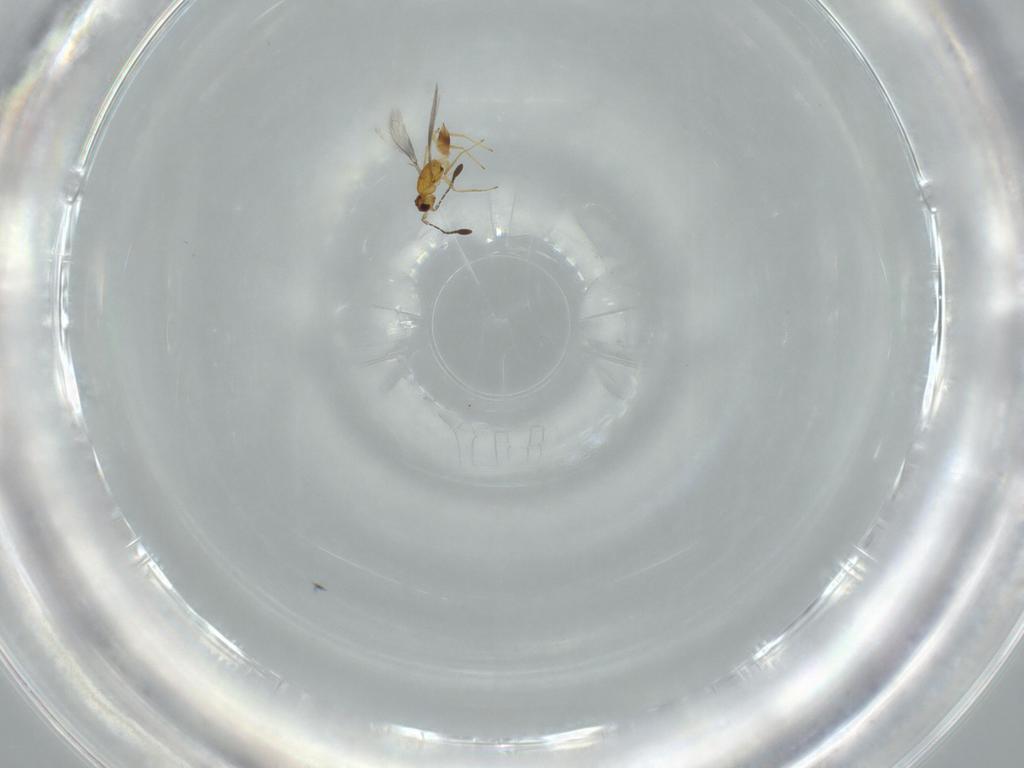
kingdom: Animalia
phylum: Arthropoda
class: Insecta
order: Hymenoptera
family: Mymaridae
